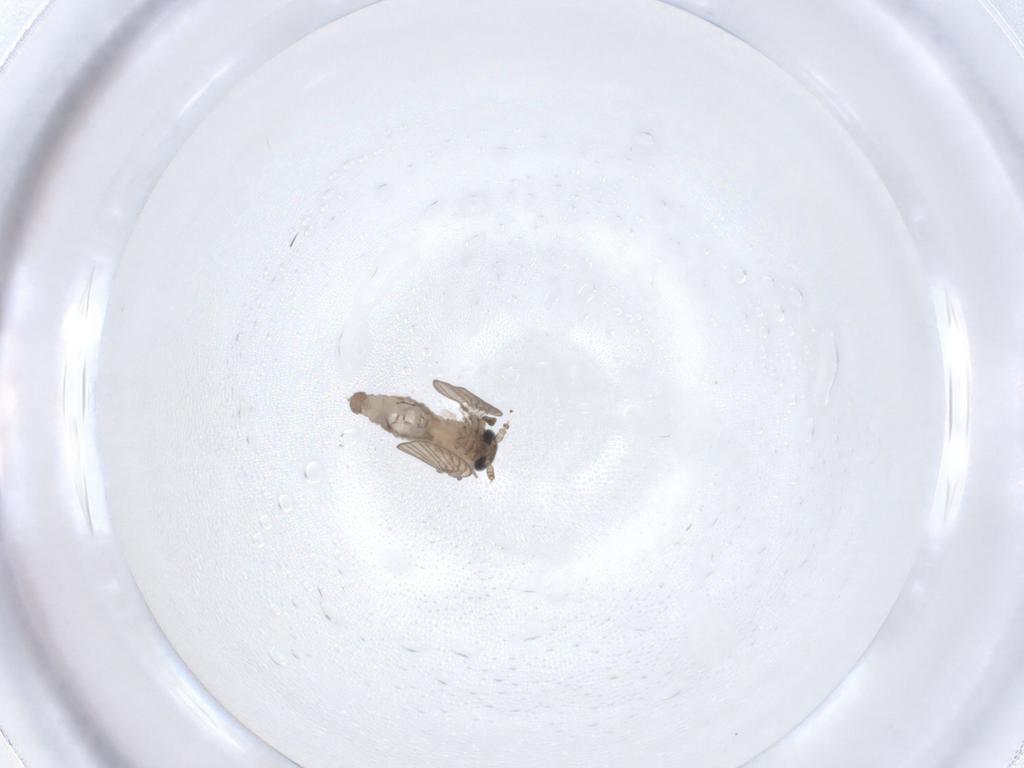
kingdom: Animalia
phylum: Arthropoda
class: Insecta
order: Diptera
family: Psychodidae
